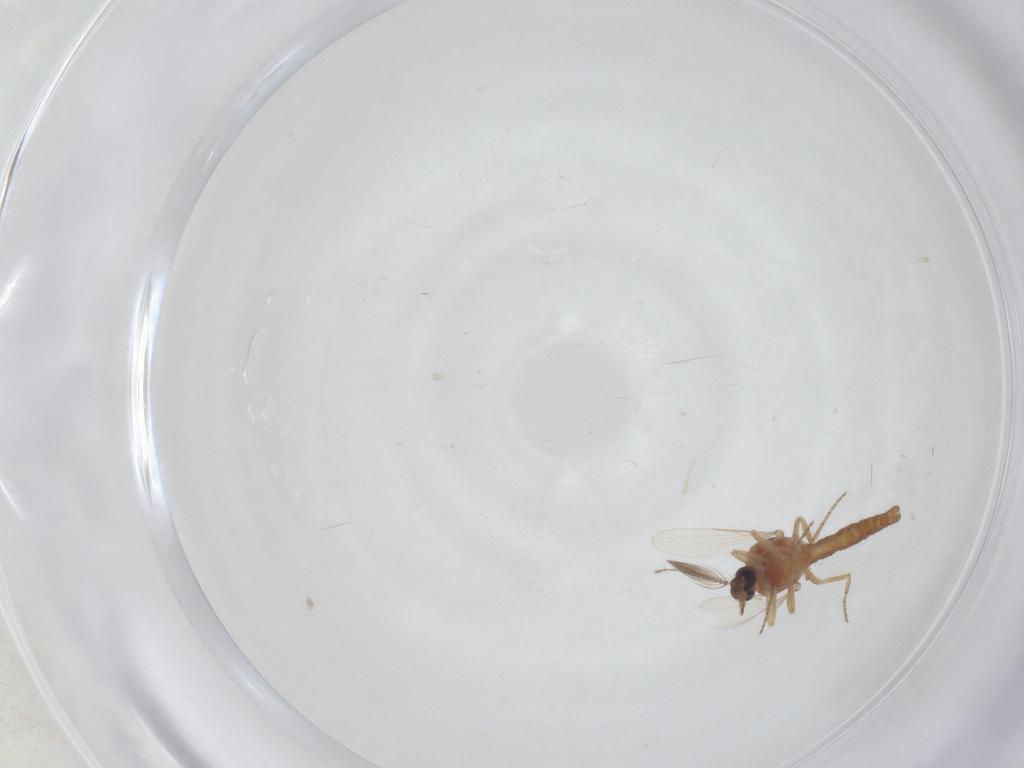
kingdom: Animalia
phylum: Arthropoda
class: Insecta
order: Diptera
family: Ceratopogonidae
